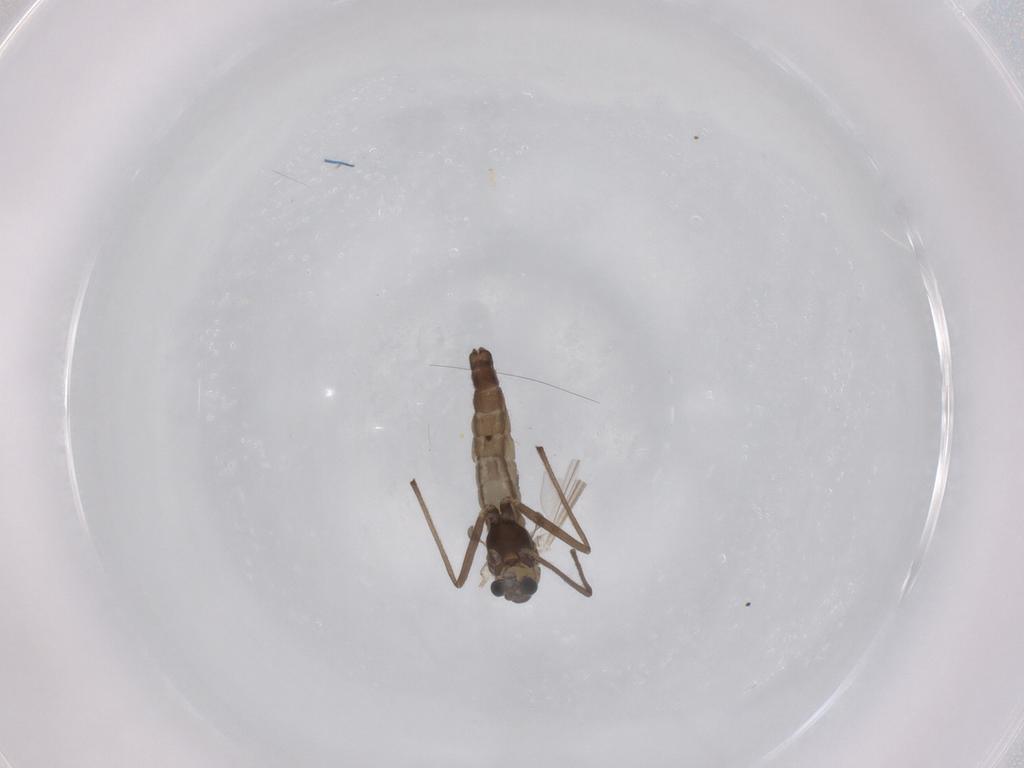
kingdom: Animalia
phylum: Arthropoda
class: Insecta
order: Diptera
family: Chironomidae
